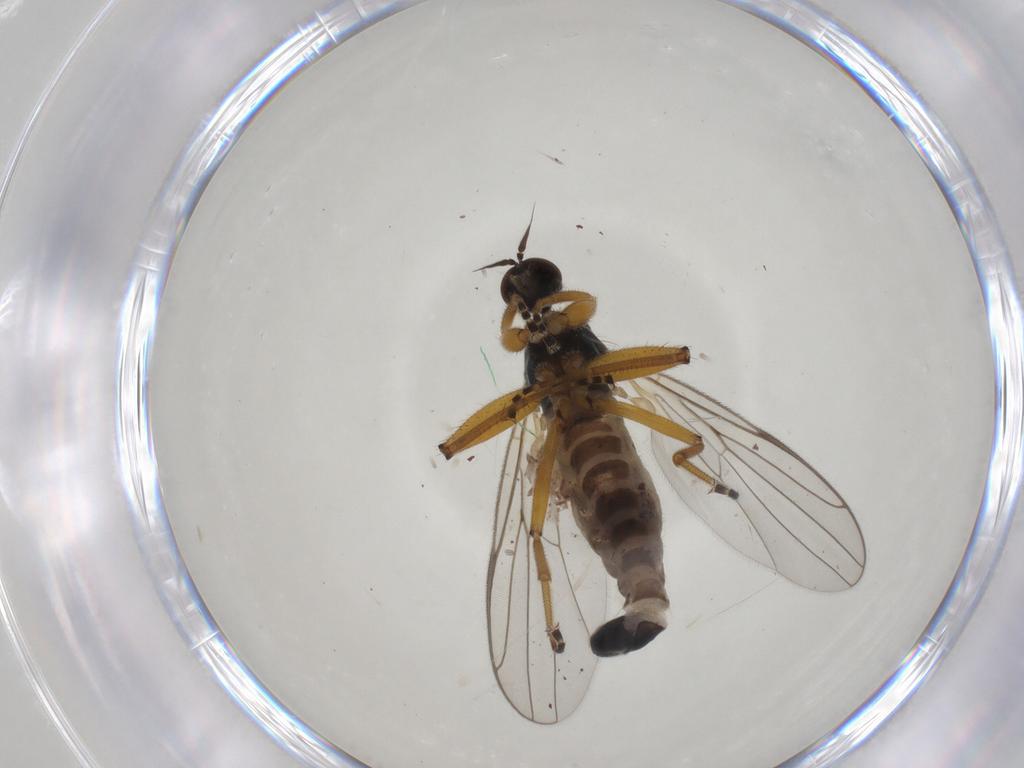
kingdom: Animalia
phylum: Arthropoda
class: Insecta
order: Diptera
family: Hybotidae
